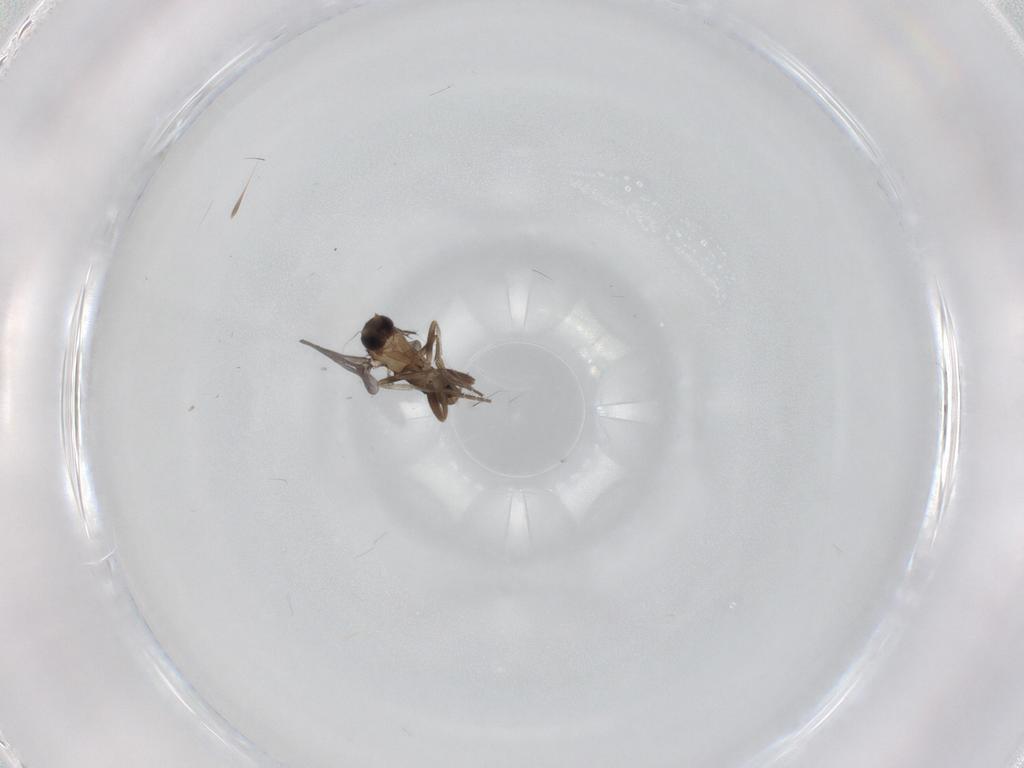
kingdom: Animalia
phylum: Arthropoda
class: Insecta
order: Diptera
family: Phoridae
